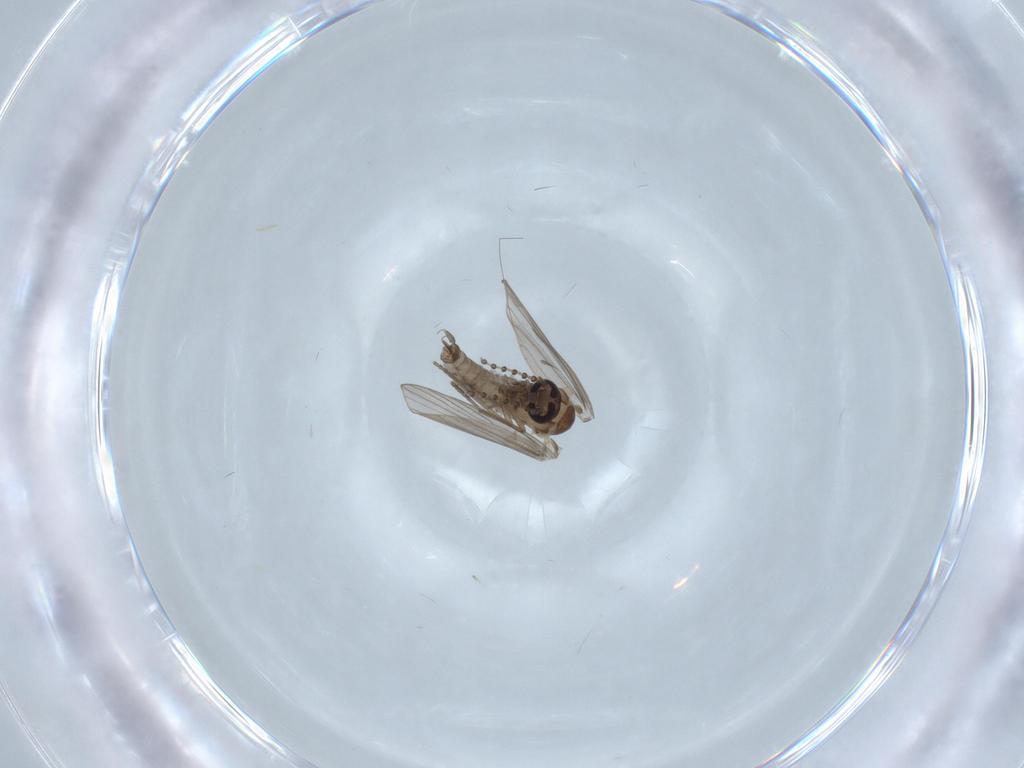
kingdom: Animalia
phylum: Arthropoda
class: Insecta
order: Diptera
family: Psychodidae
